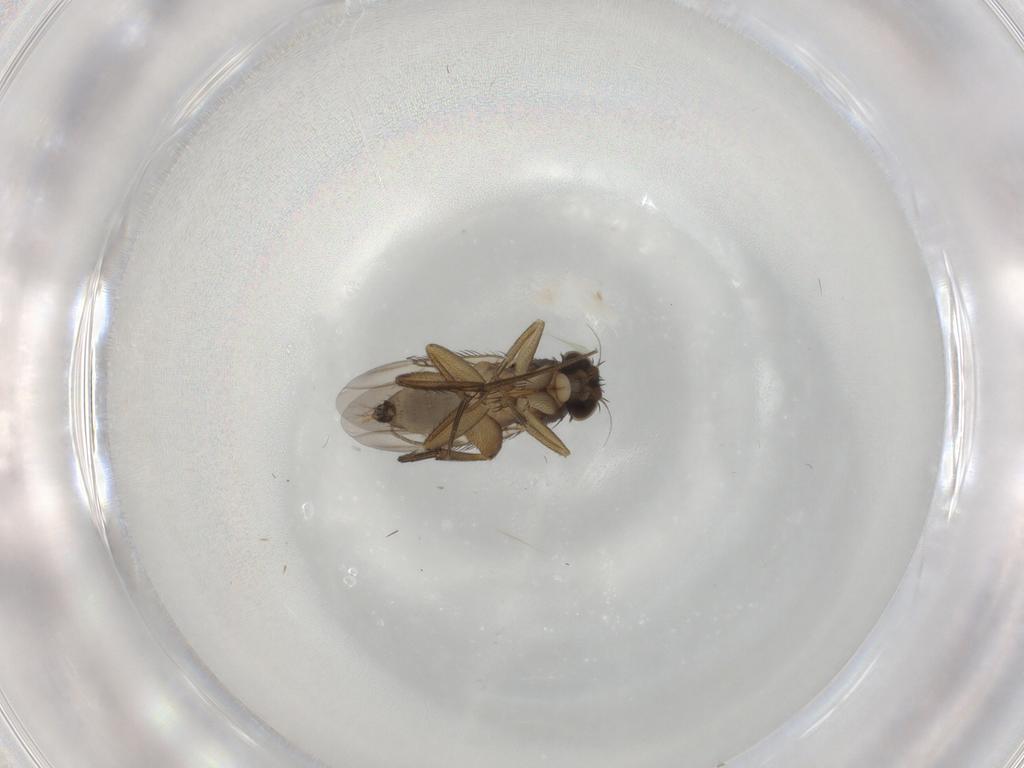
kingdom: Animalia
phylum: Arthropoda
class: Insecta
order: Diptera
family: Phoridae
